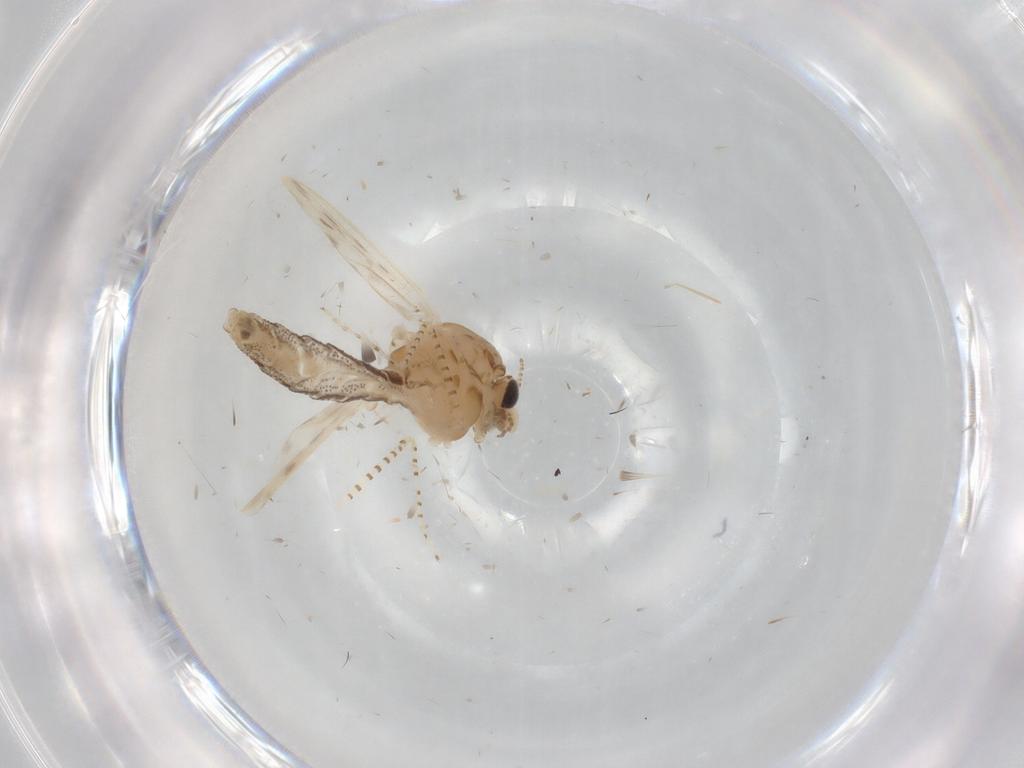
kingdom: Animalia
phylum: Arthropoda
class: Insecta
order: Diptera
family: Chaoboridae
